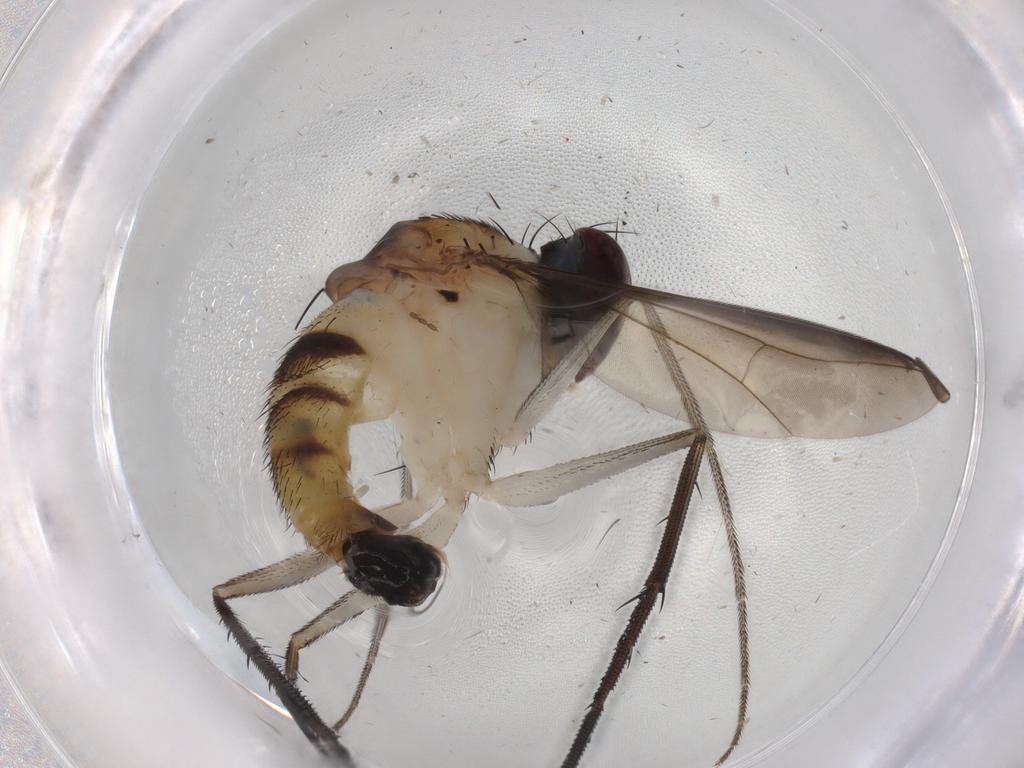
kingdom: Animalia
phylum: Arthropoda
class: Insecta
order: Diptera
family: Dolichopodidae
